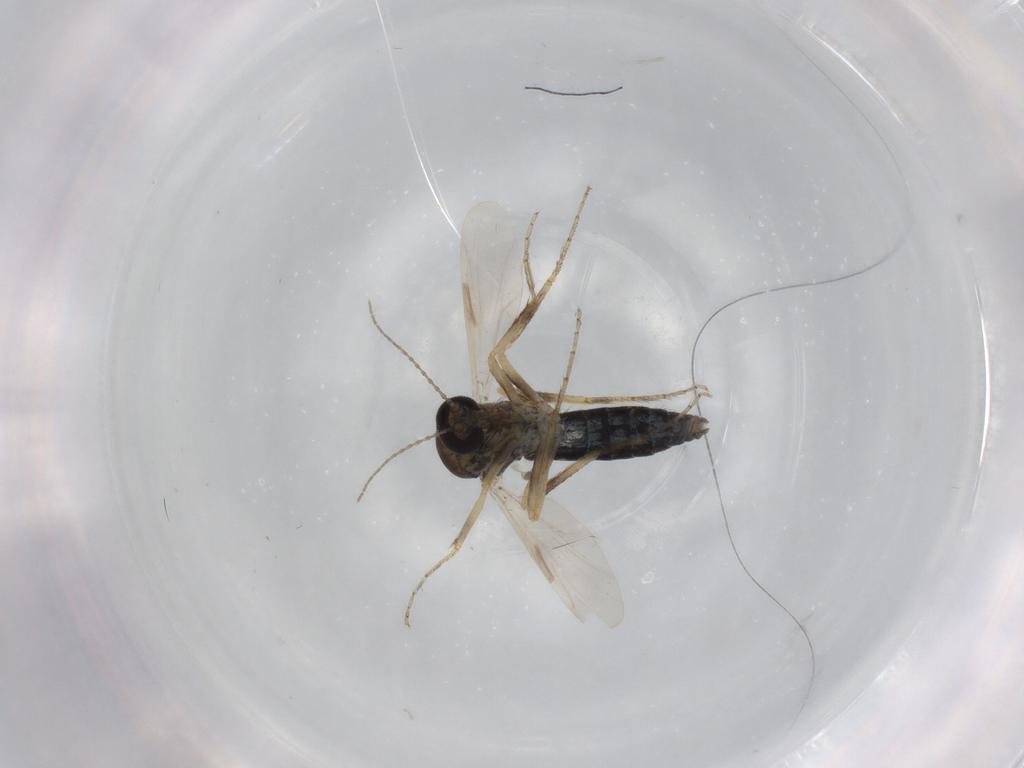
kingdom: Animalia
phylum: Arthropoda
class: Insecta
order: Diptera
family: Ceratopogonidae
